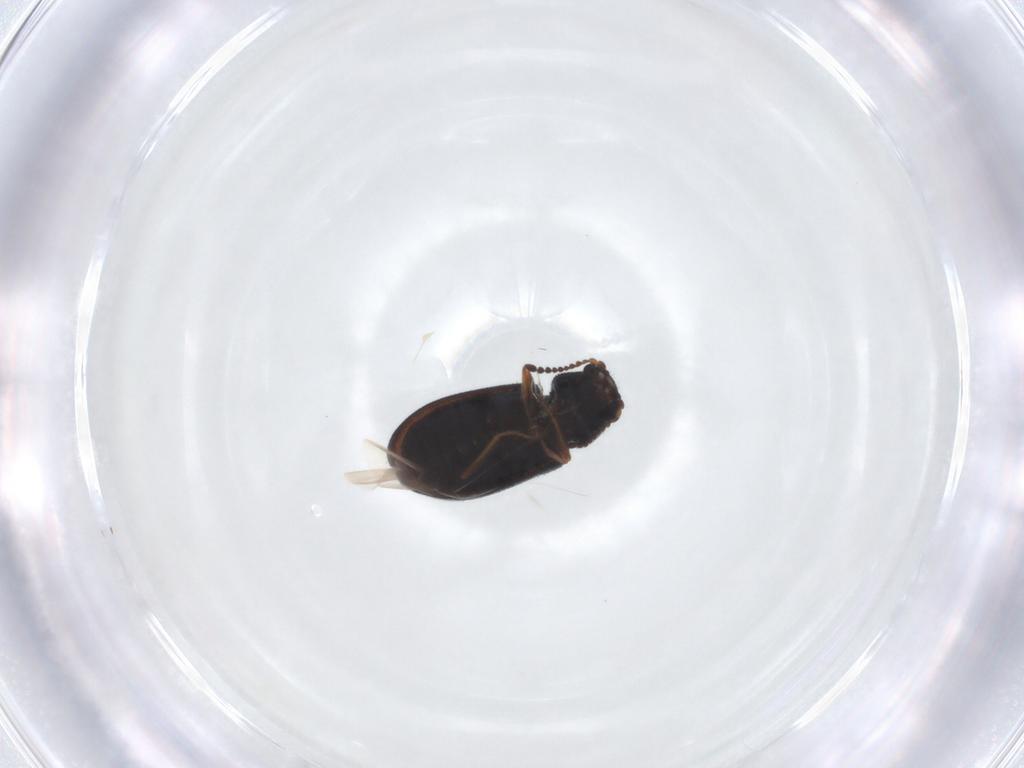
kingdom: Animalia
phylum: Arthropoda
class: Insecta
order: Coleoptera
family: Melyridae
